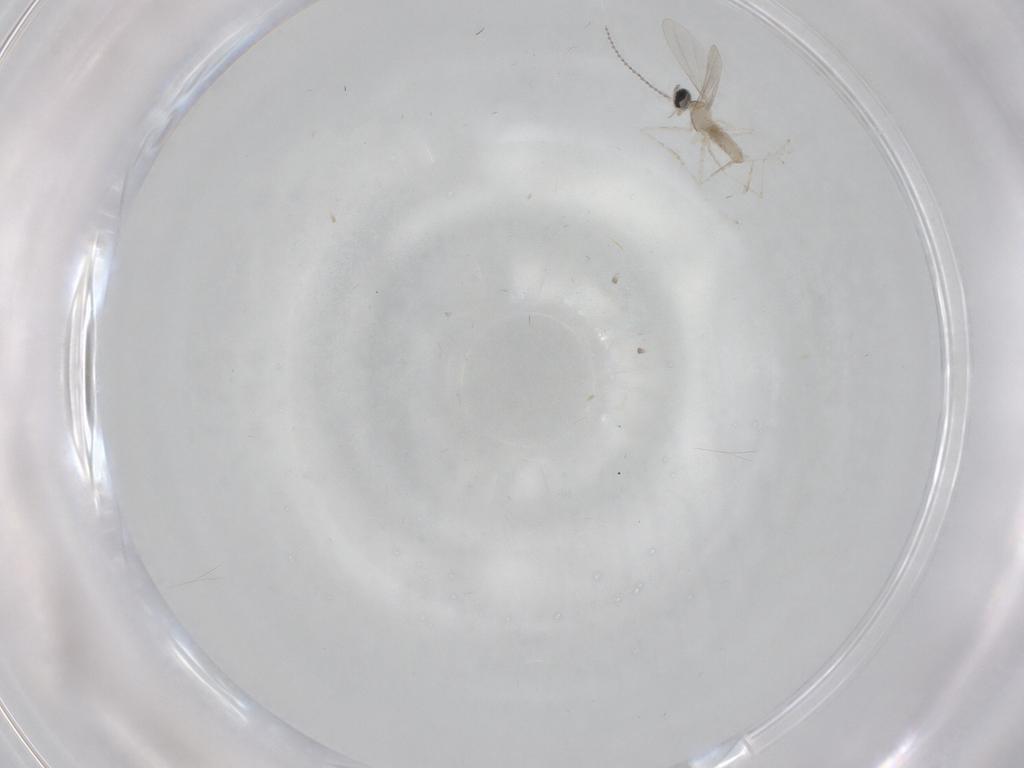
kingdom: Animalia
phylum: Arthropoda
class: Insecta
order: Diptera
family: Cecidomyiidae
